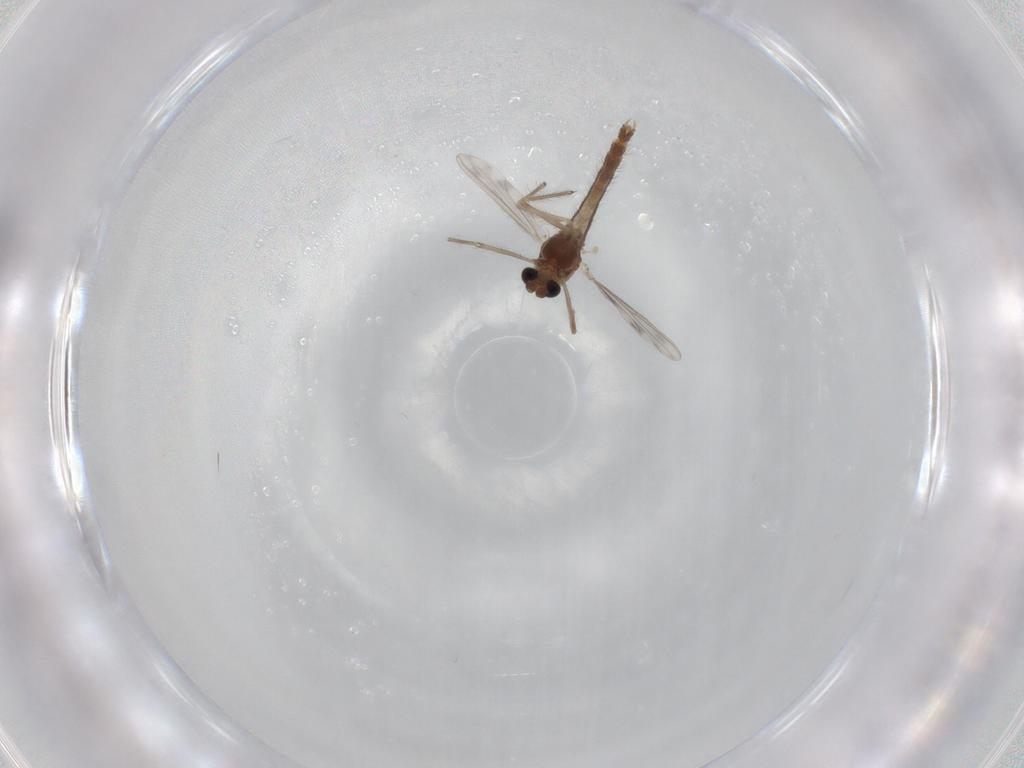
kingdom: Animalia
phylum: Arthropoda
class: Insecta
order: Diptera
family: Chironomidae
